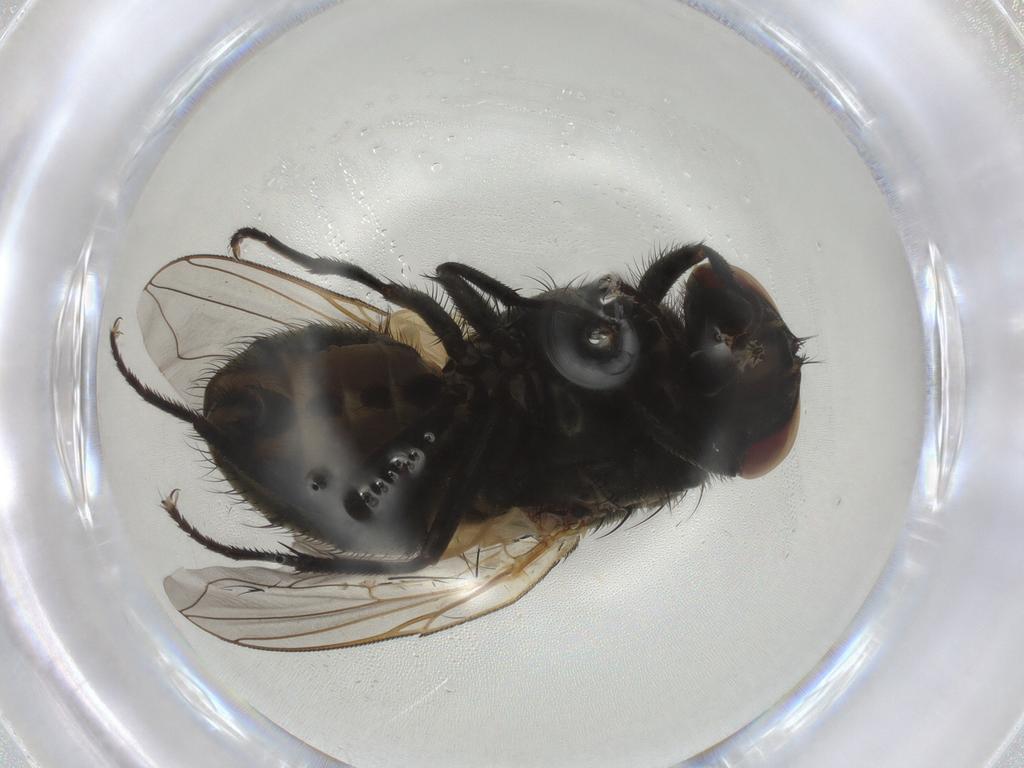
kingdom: Animalia
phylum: Arthropoda
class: Insecta
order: Diptera
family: Muscidae
